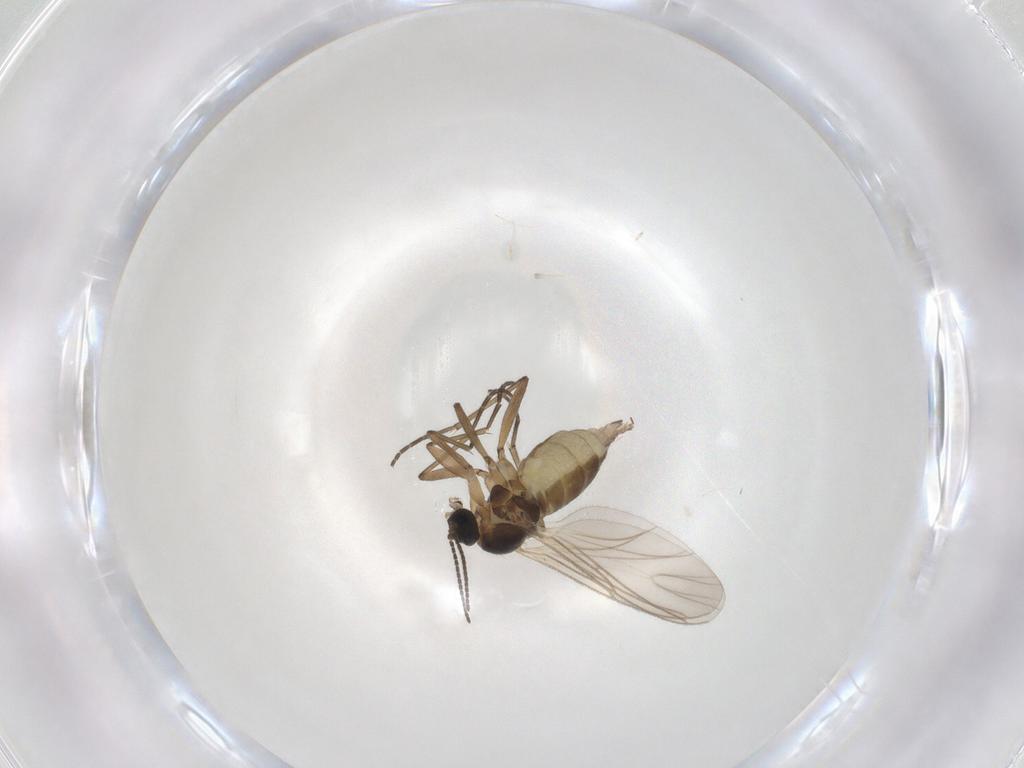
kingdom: Animalia
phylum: Arthropoda
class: Insecta
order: Diptera
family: Sciaridae
